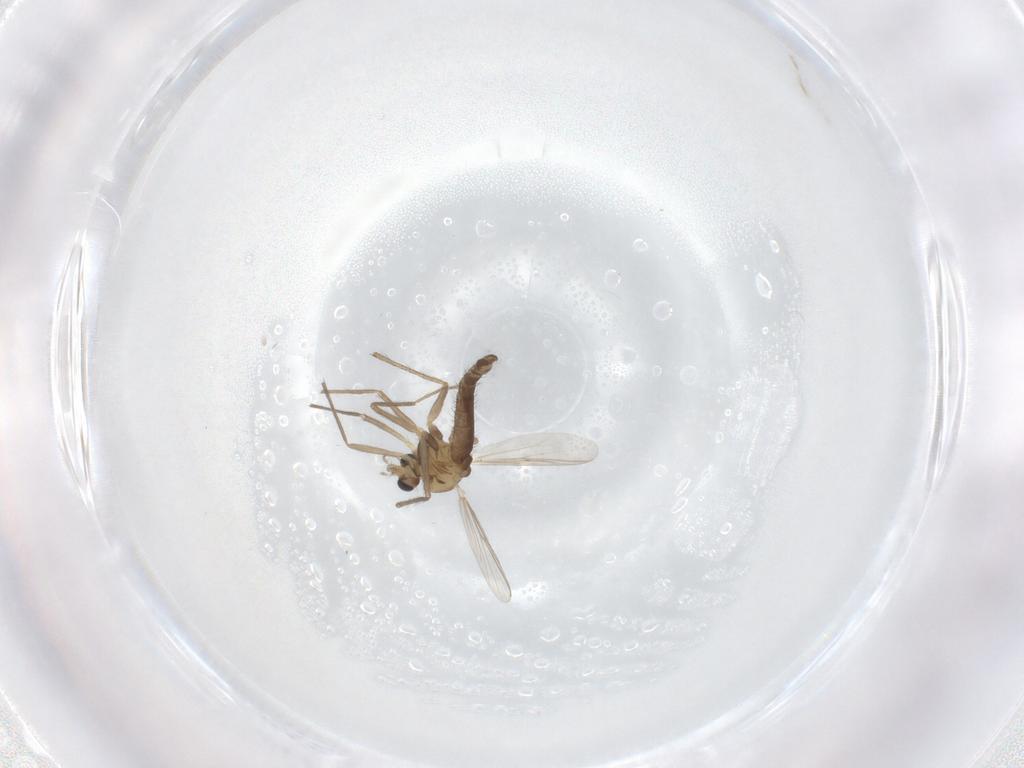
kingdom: Animalia
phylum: Arthropoda
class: Insecta
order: Diptera
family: Chironomidae
